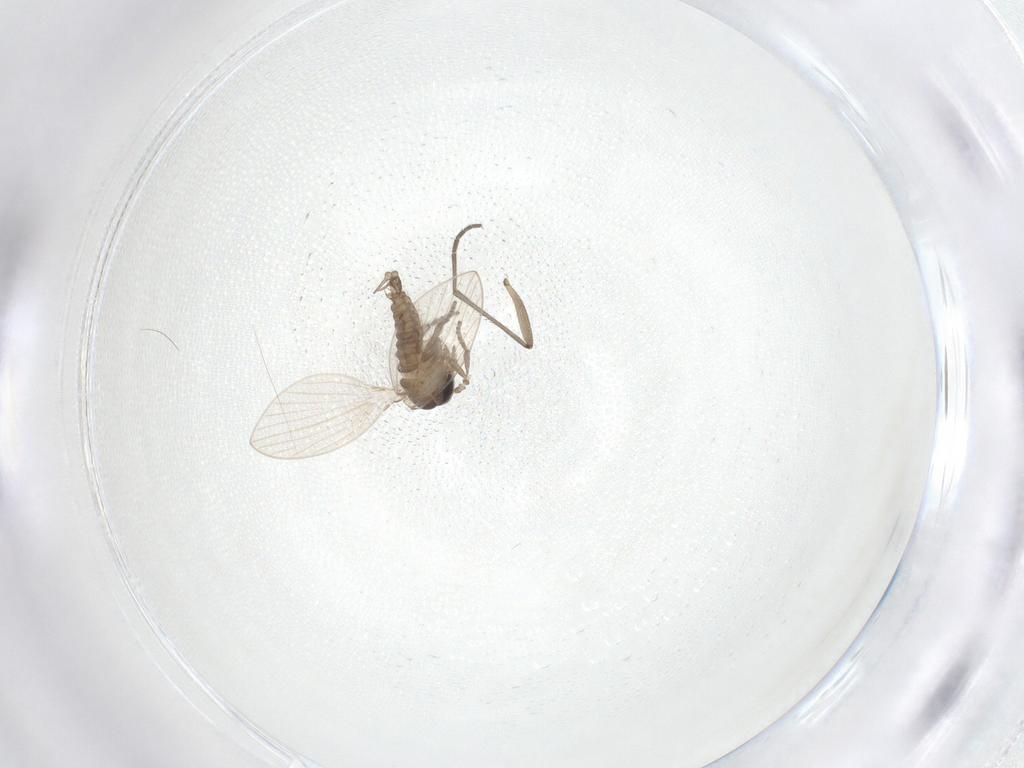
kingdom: Animalia
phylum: Arthropoda
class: Insecta
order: Diptera
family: Psychodidae
